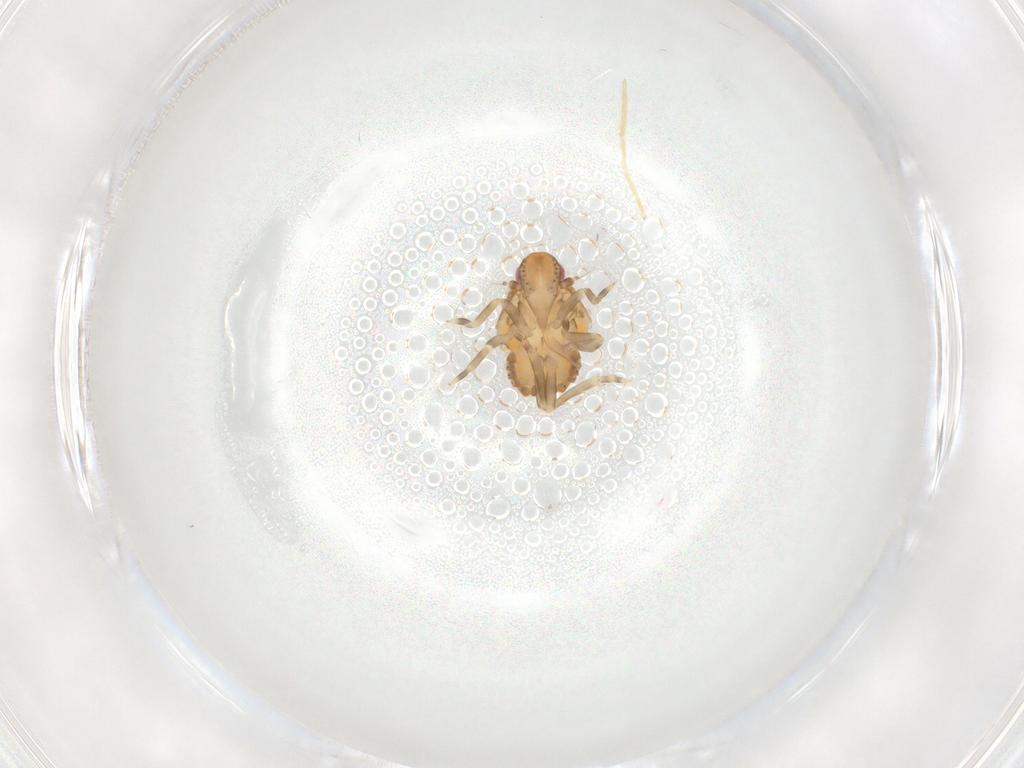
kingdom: Animalia
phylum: Arthropoda
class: Insecta
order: Hemiptera
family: Flatidae
